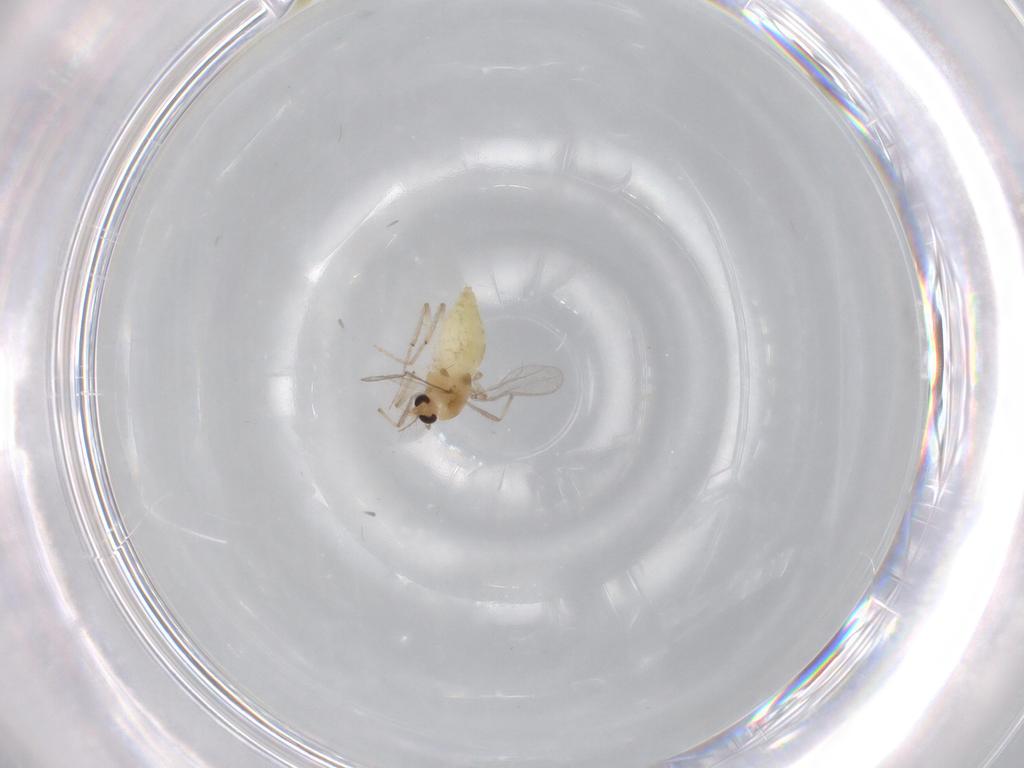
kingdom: Animalia
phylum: Arthropoda
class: Insecta
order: Diptera
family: Chironomidae
